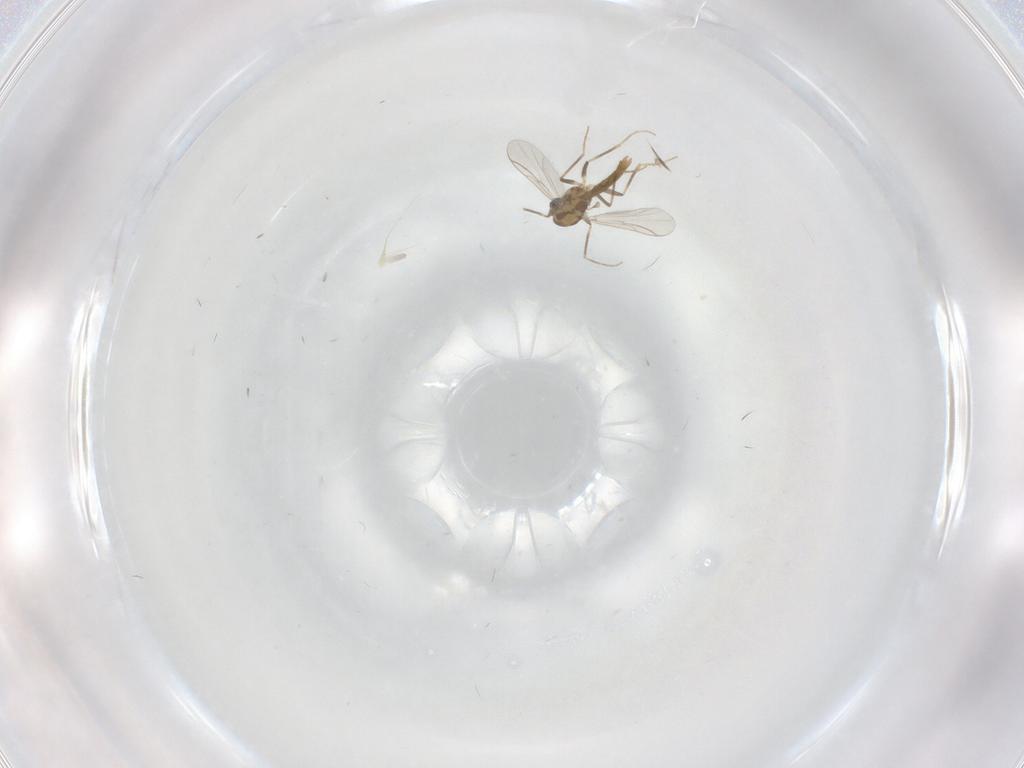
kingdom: Animalia
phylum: Arthropoda
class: Insecta
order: Diptera
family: Chironomidae
